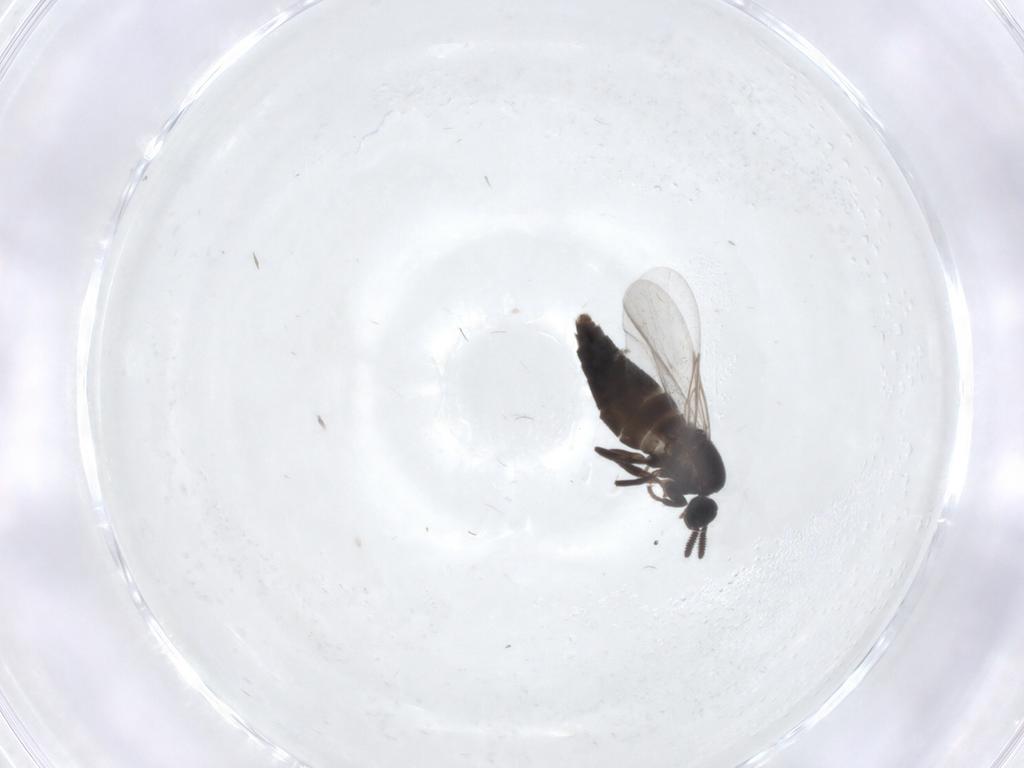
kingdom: Animalia
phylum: Arthropoda
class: Insecta
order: Diptera
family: Scatopsidae
